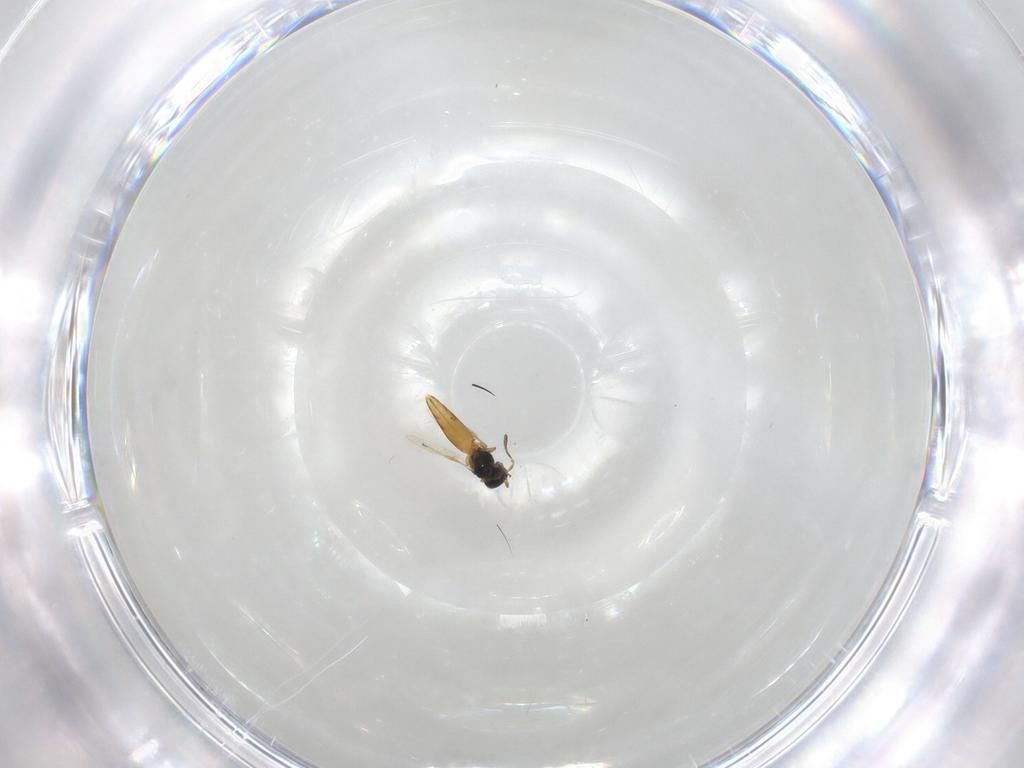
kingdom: Animalia
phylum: Arthropoda
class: Insecta
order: Hymenoptera
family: Scelionidae
